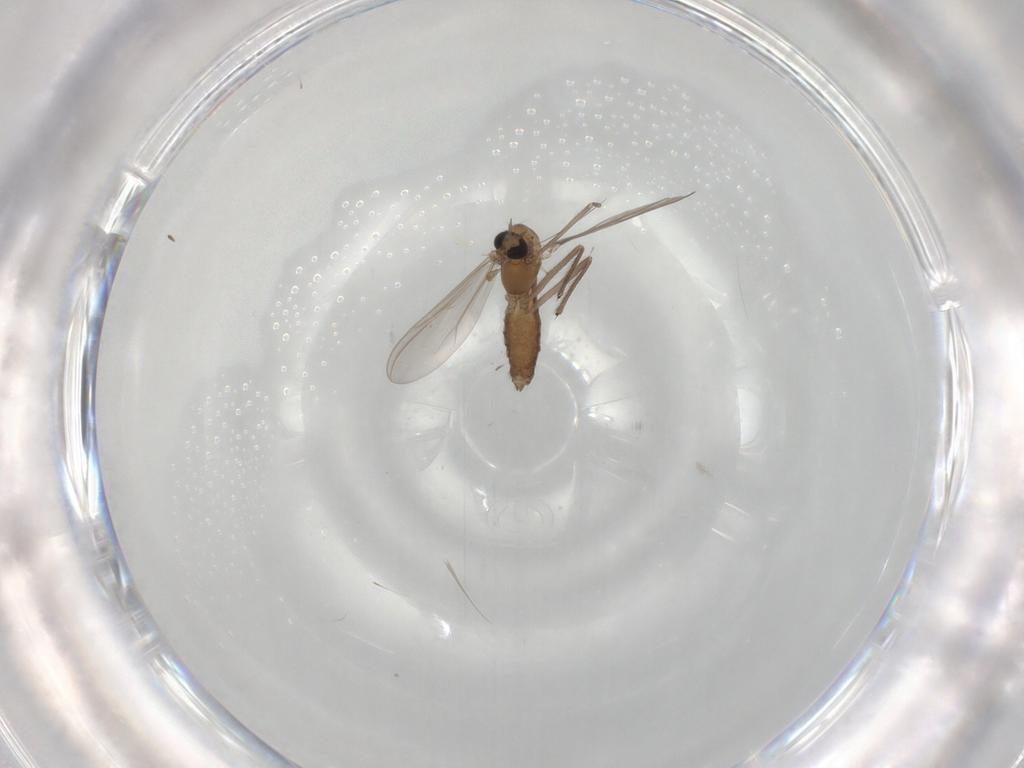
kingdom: Animalia
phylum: Arthropoda
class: Insecta
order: Diptera
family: Chironomidae
